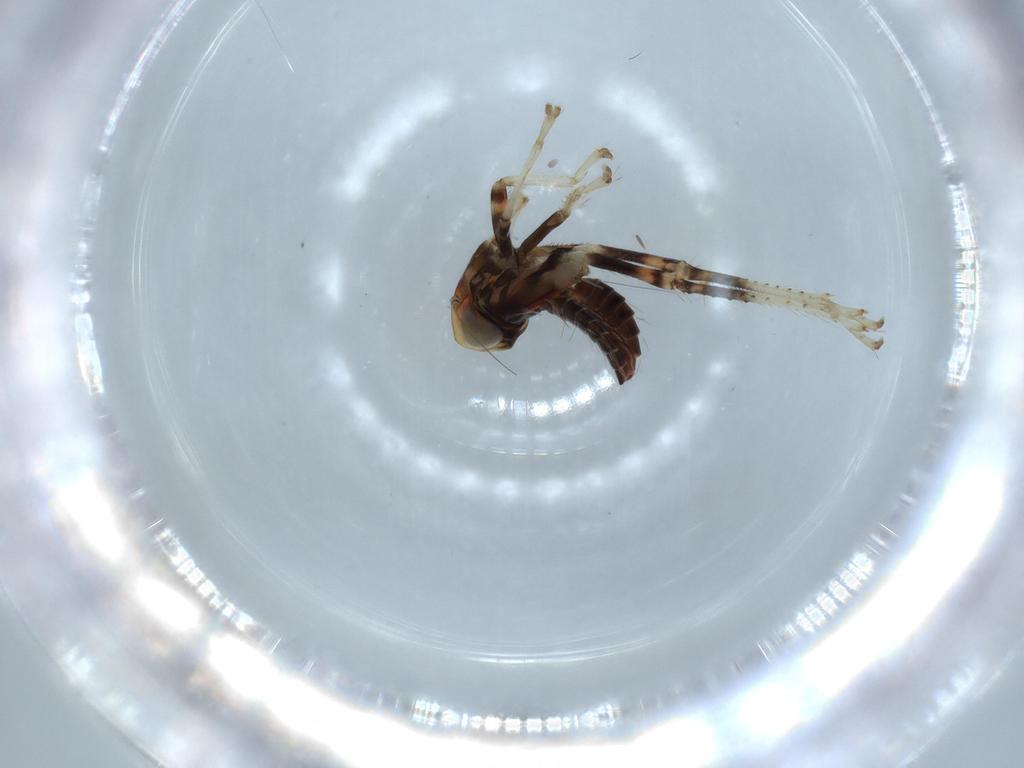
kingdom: Animalia
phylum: Arthropoda
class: Insecta
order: Hemiptera
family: Cicadellidae
